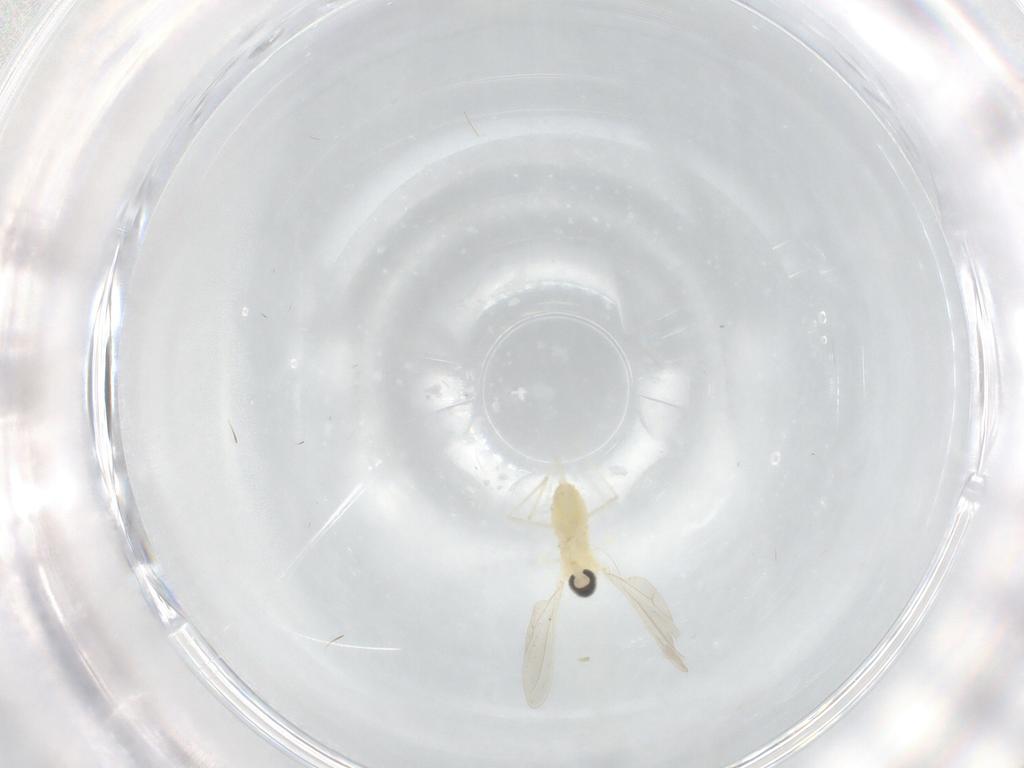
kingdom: Animalia
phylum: Arthropoda
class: Insecta
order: Diptera
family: Cecidomyiidae
